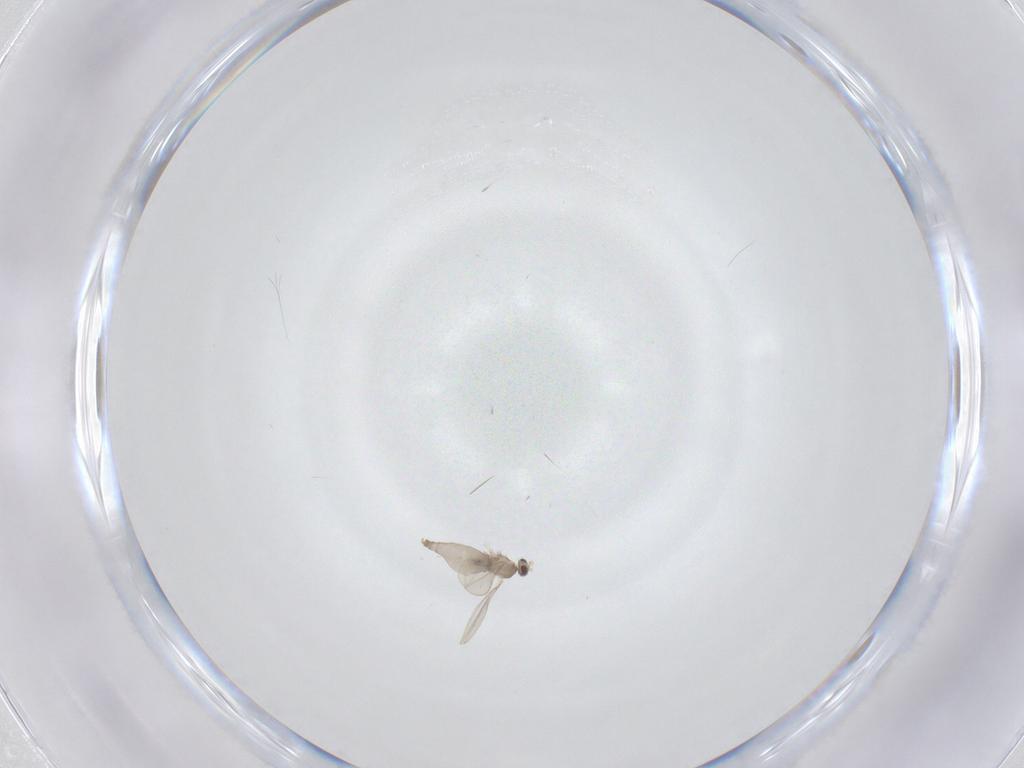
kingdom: Animalia
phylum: Arthropoda
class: Insecta
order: Diptera
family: Cecidomyiidae
